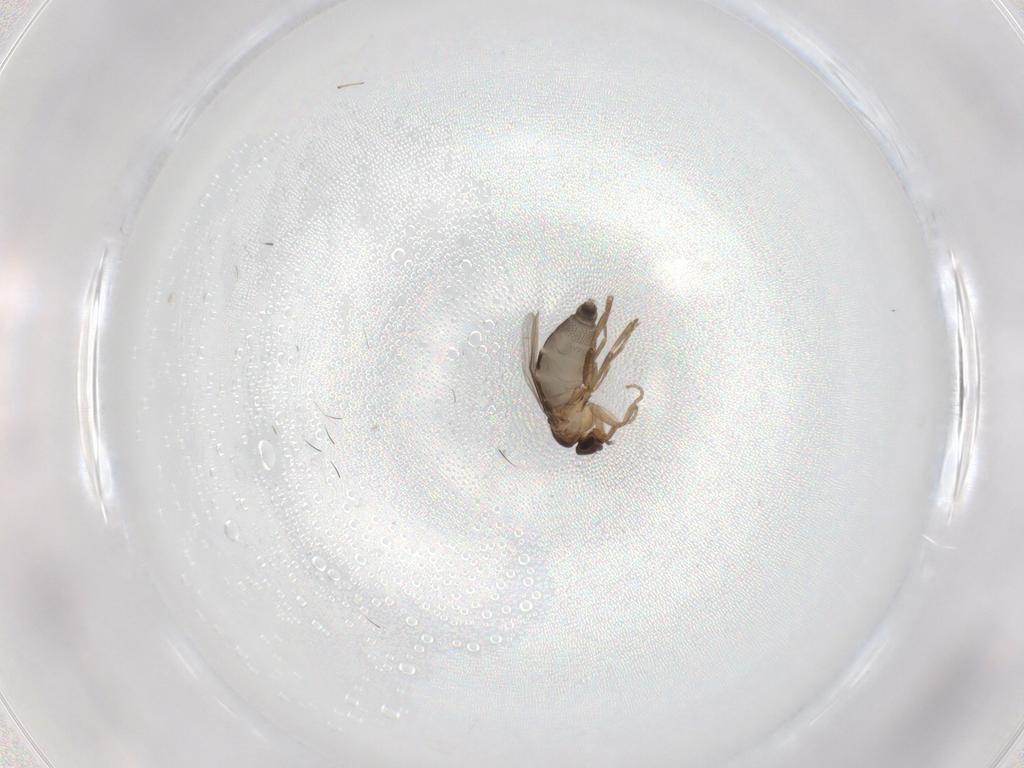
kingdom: Animalia
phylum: Arthropoda
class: Insecta
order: Diptera
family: Phoridae
